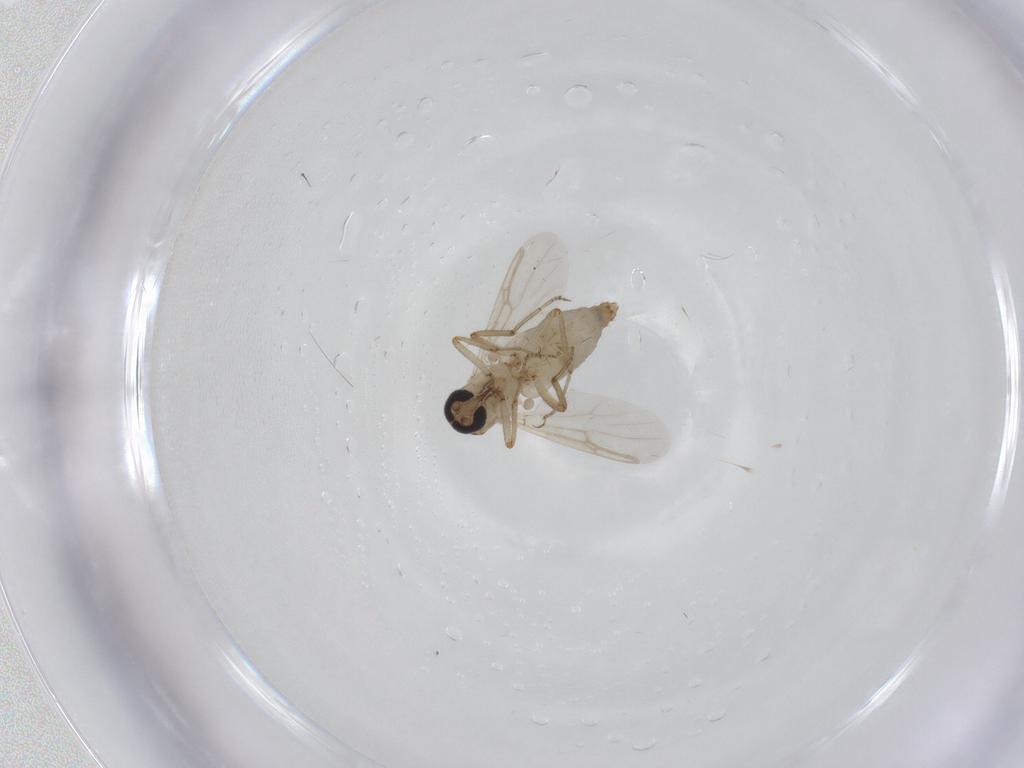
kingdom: Animalia
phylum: Arthropoda
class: Insecta
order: Diptera
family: Ceratopogonidae
